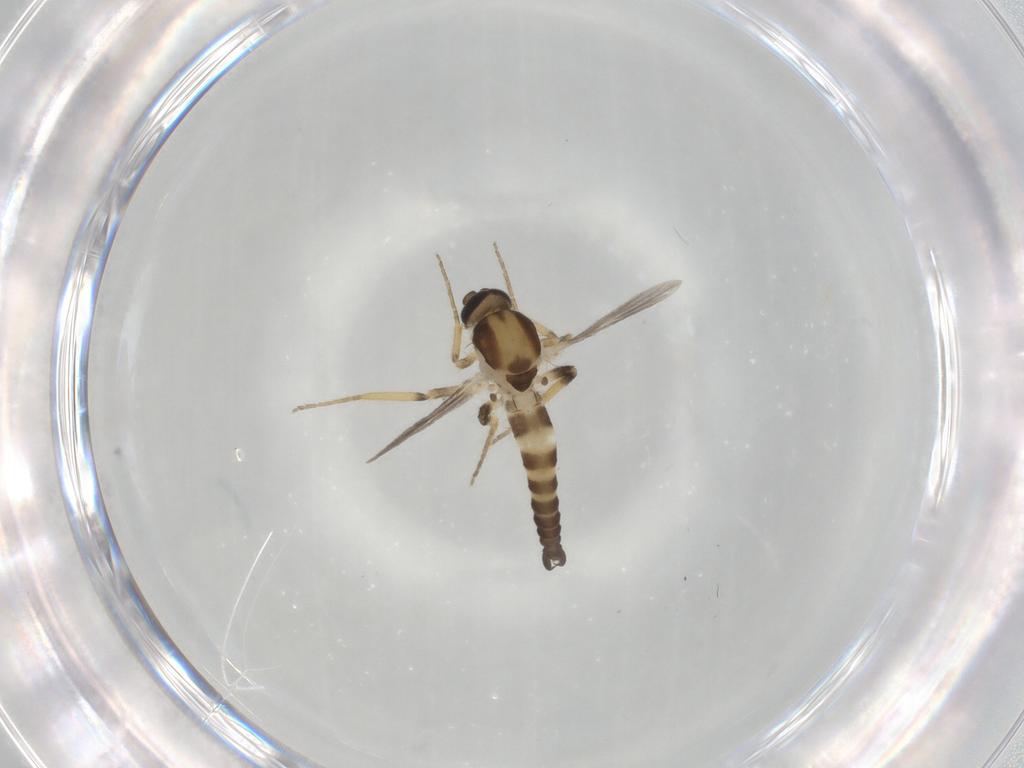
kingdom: Animalia
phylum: Arthropoda
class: Insecta
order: Diptera
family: Ceratopogonidae
